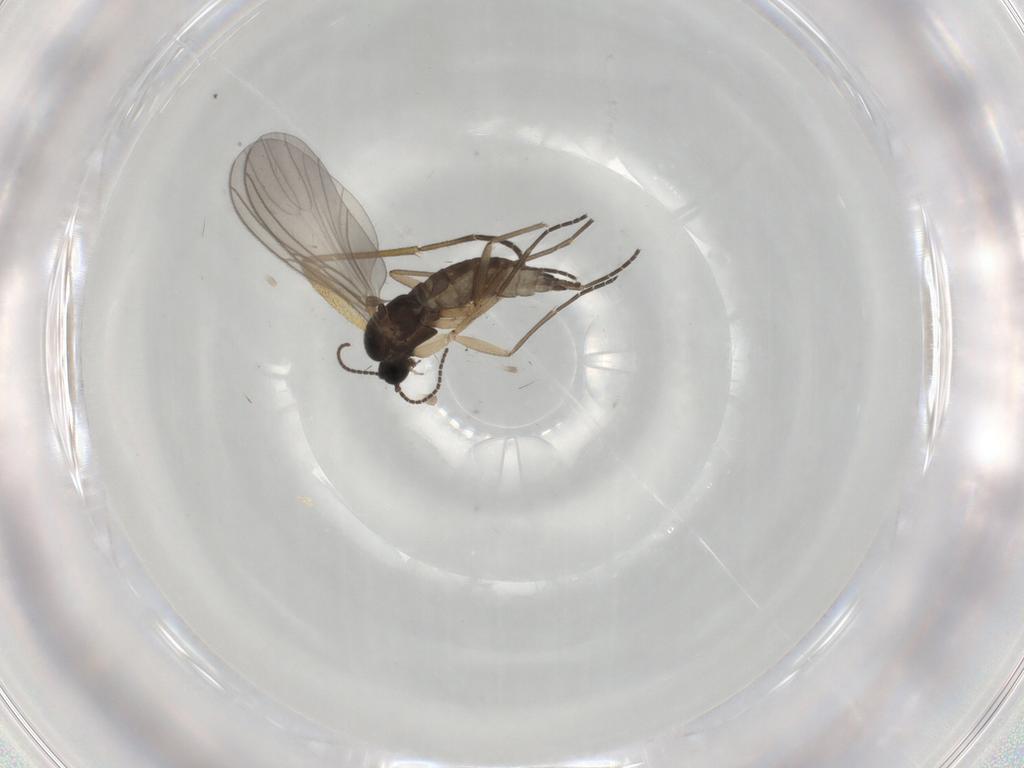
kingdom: Animalia
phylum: Arthropoda
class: Insecta
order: Diptera
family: Sciaridae
